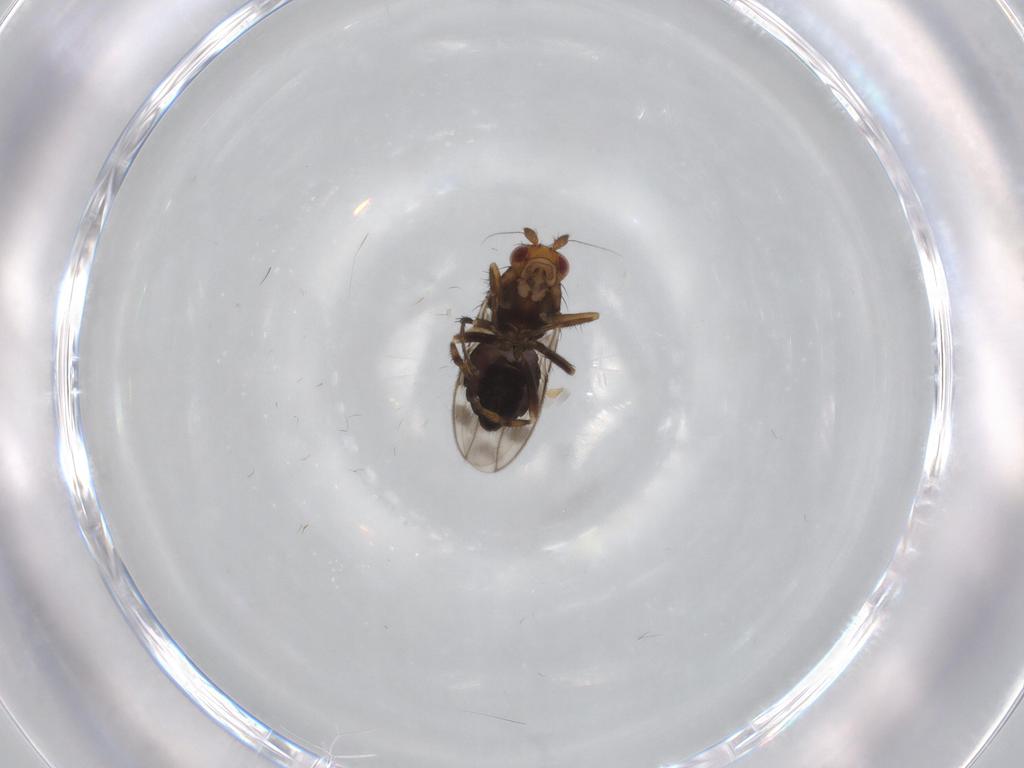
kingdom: Animalia
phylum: Arthropoda
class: Insecta
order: Diptera
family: Sphaeroceridae
